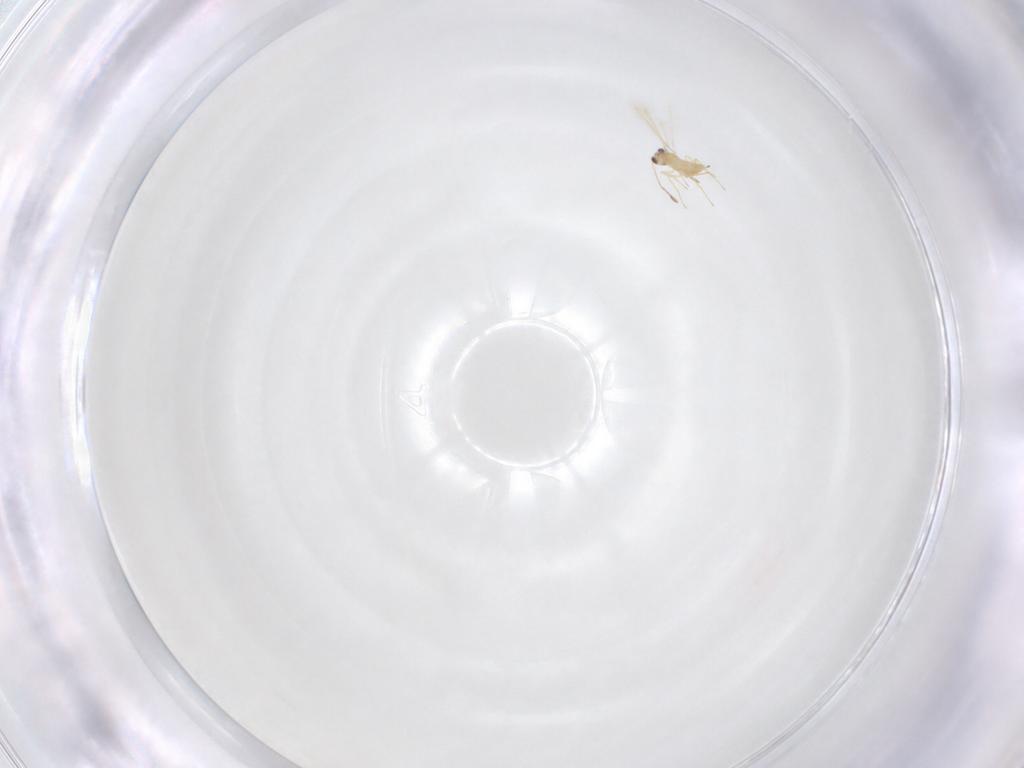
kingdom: Animalia
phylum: Arthropoda
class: Insecta
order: Hymenoptera
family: Mymaridae
